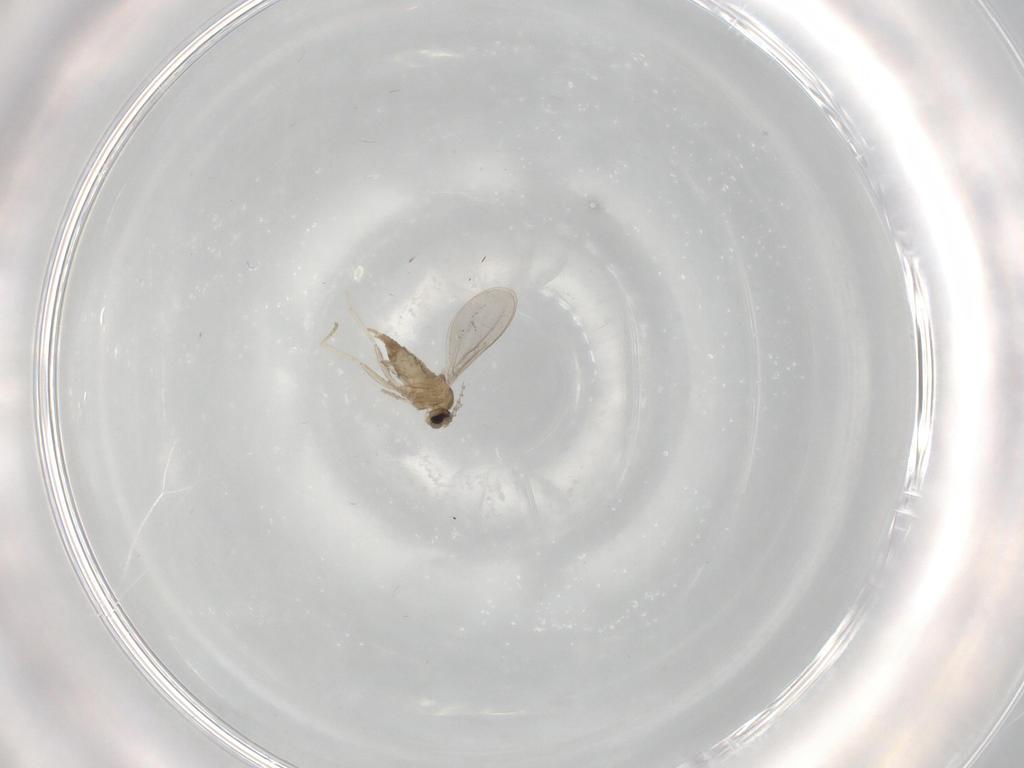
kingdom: Animalia
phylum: Arthropoda
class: Insecta
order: Diptera
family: Cecidomyiidae
